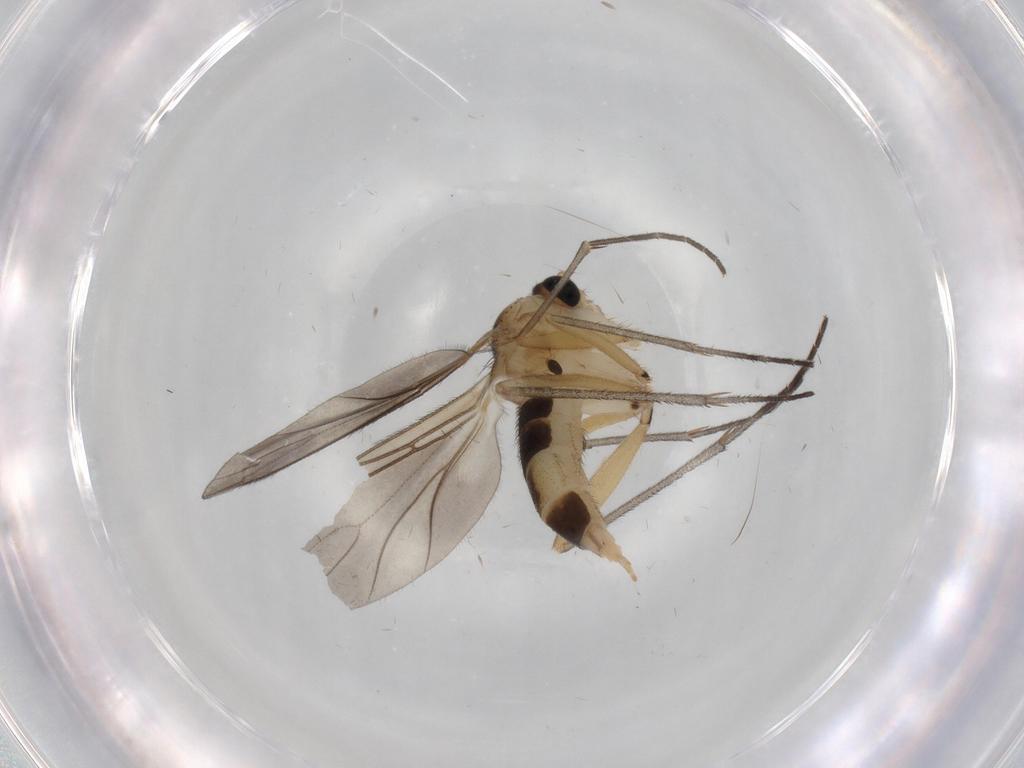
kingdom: Animalia
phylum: Arthropoda
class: Insecta
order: Diptera
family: Sciaridae
